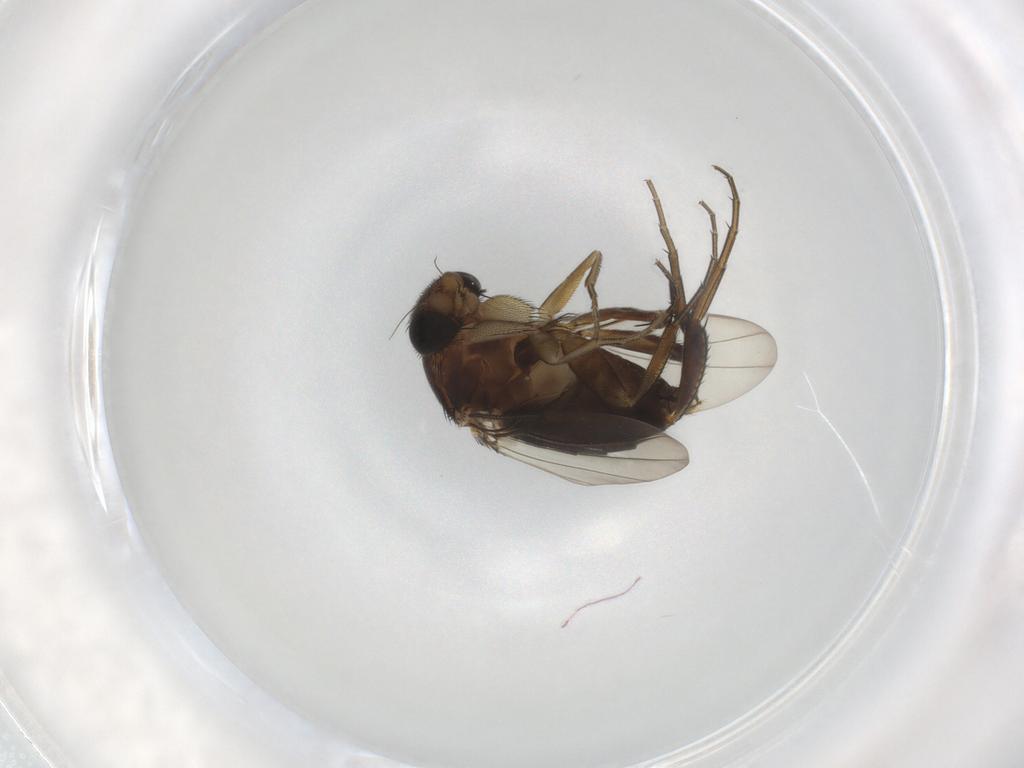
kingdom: Animalia
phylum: Arthropoda
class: Insecta
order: Diptera
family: Phoridae
